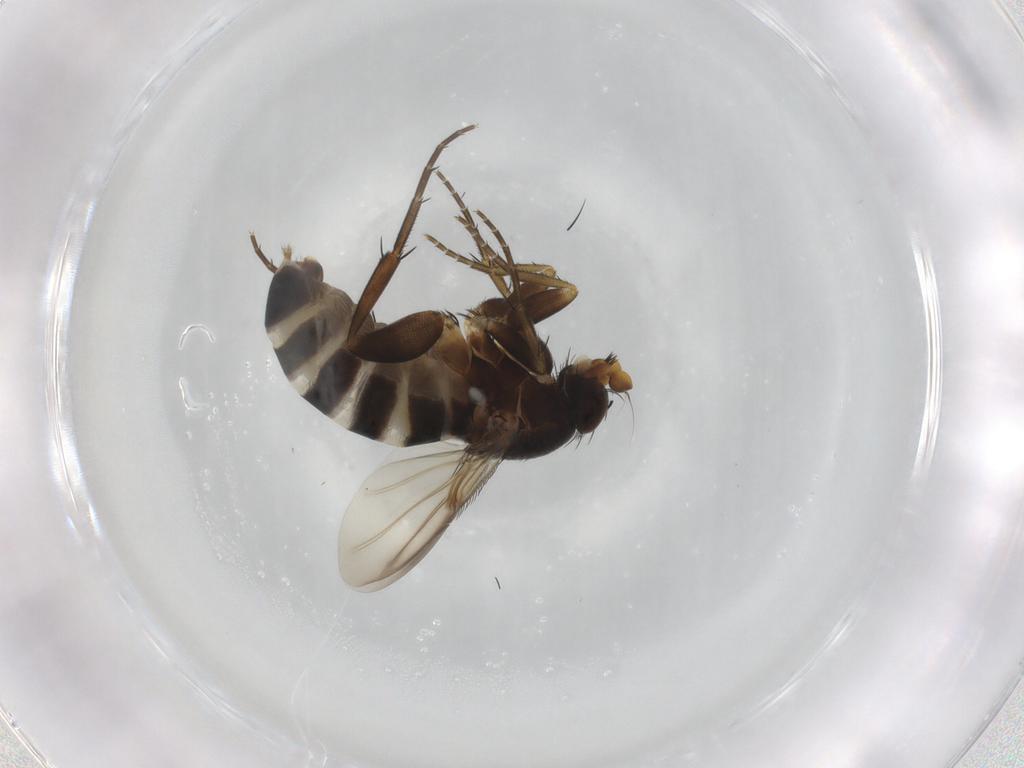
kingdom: Animalia
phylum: Arthropoda
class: Insecta
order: Diptera
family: Phoridae
